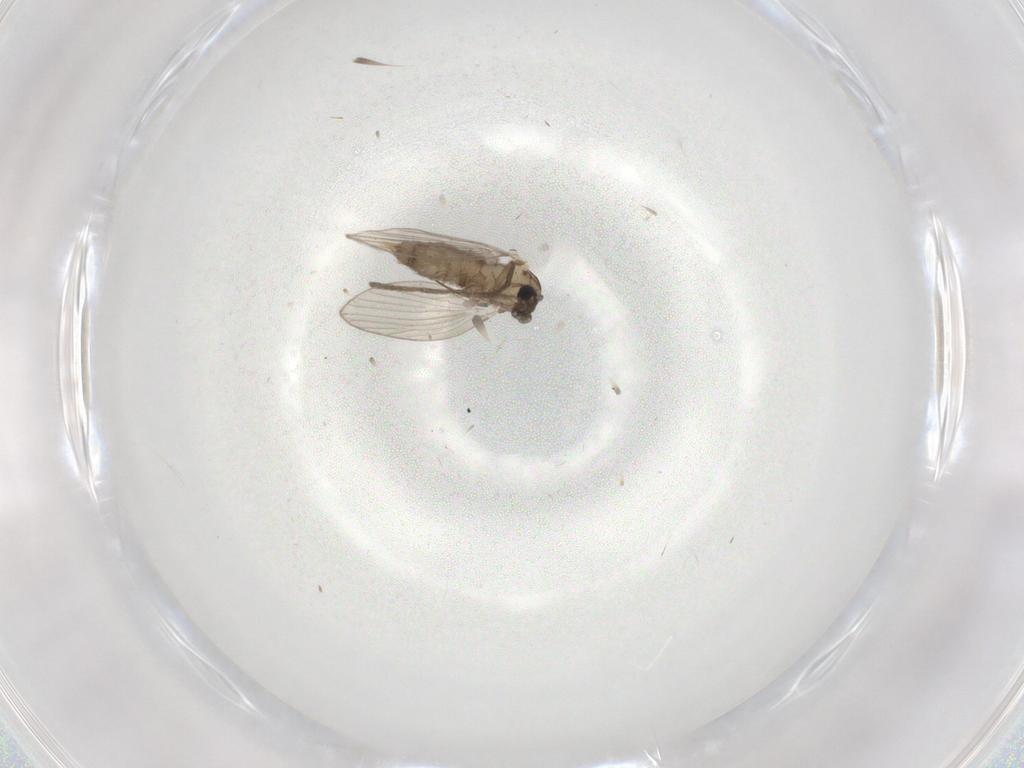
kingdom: Animalia
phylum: Arthropoda
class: Insecta
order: Diptera
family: Psychodidae
